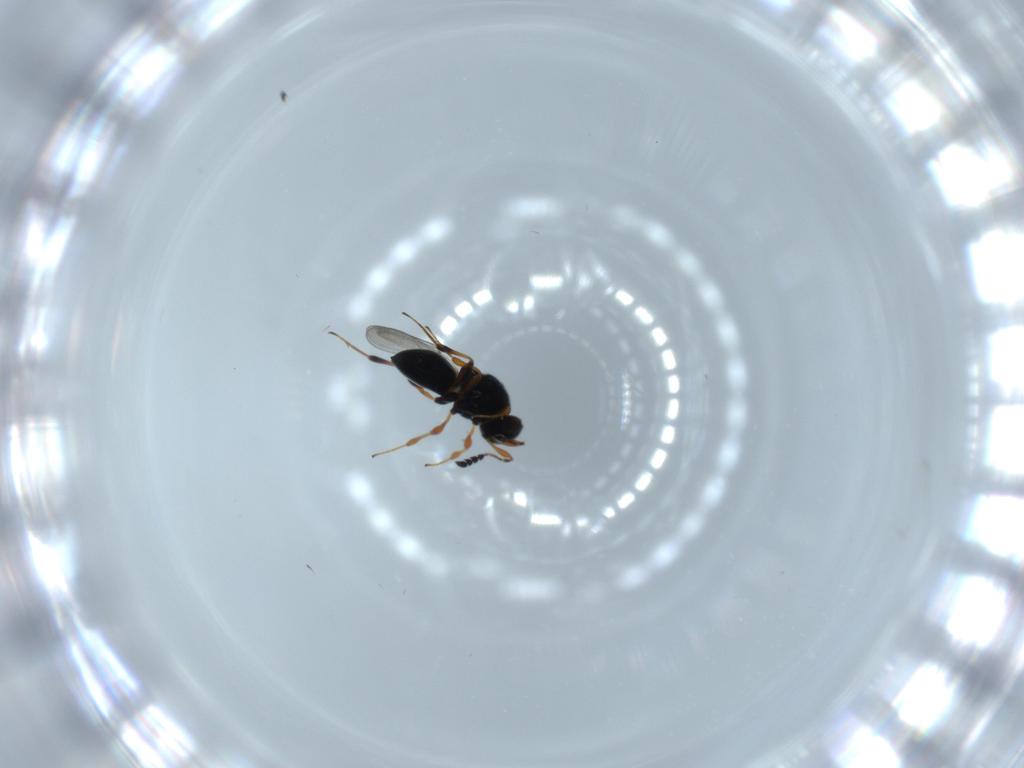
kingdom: Animalia
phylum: Arthropoda
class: Insecta
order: Hymenoptera
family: Platygastridae
